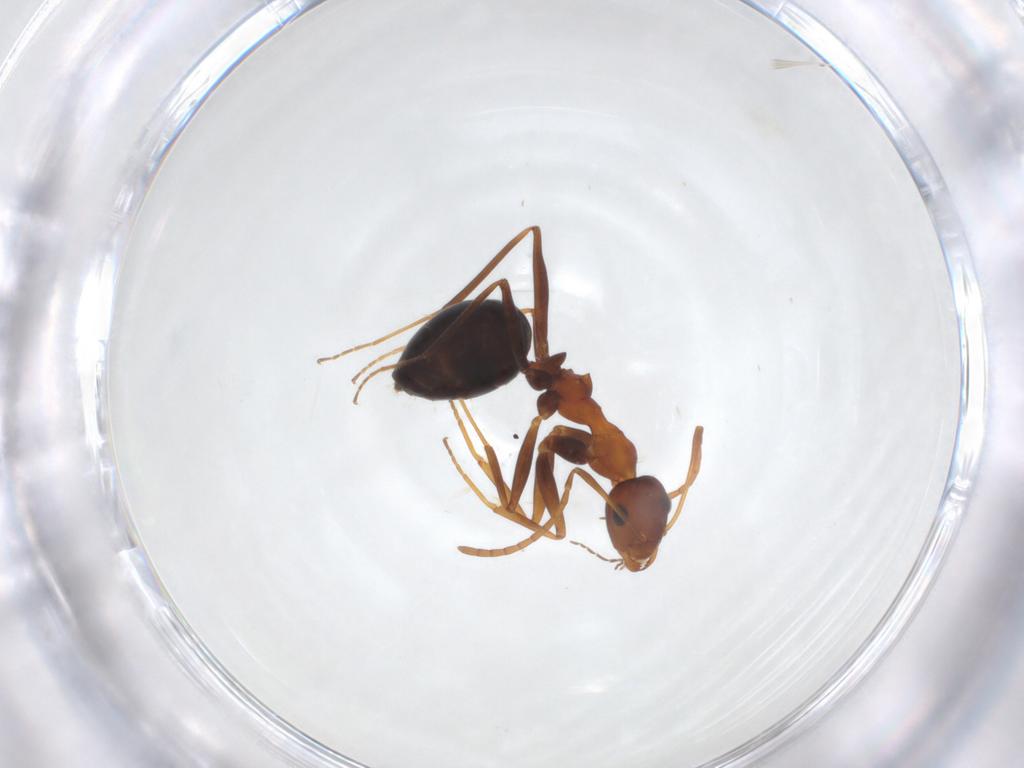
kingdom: Animalia
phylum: Arthropoda
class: Insecta
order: Hymenoptera
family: Formicidae
